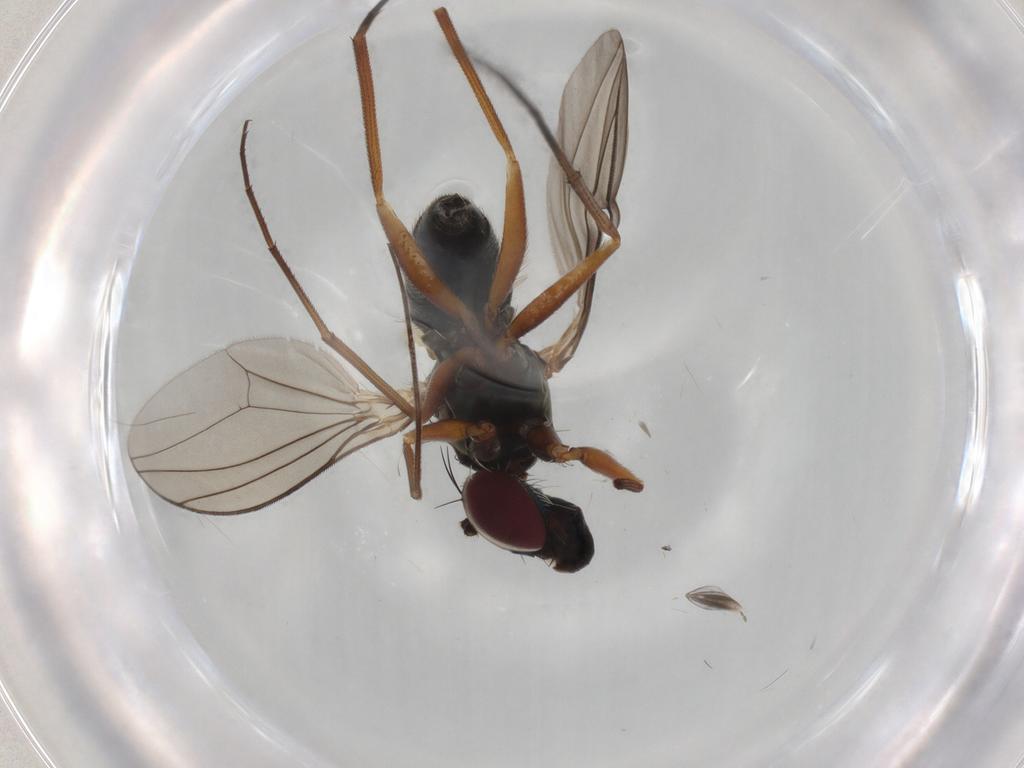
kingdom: Animalia
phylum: Arthropoda
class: Insecta
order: Diptera
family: Ceratopogonidae
